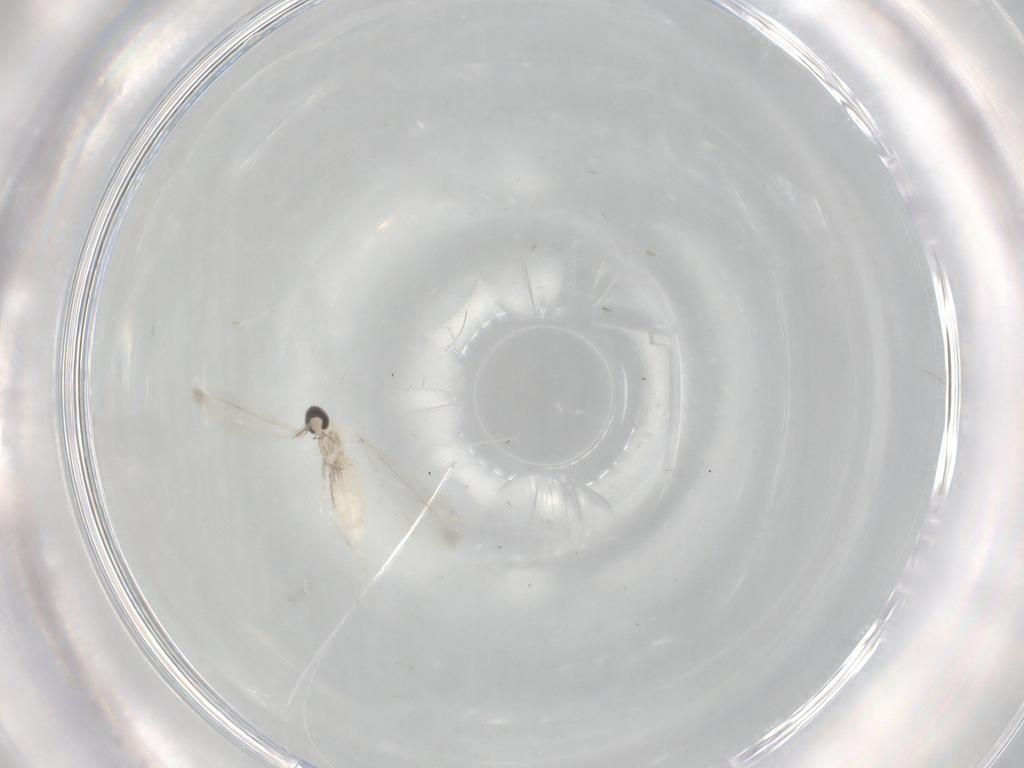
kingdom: Animalia
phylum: Arthropoda
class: Insecta
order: Diptera
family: Cecidomyiidae
